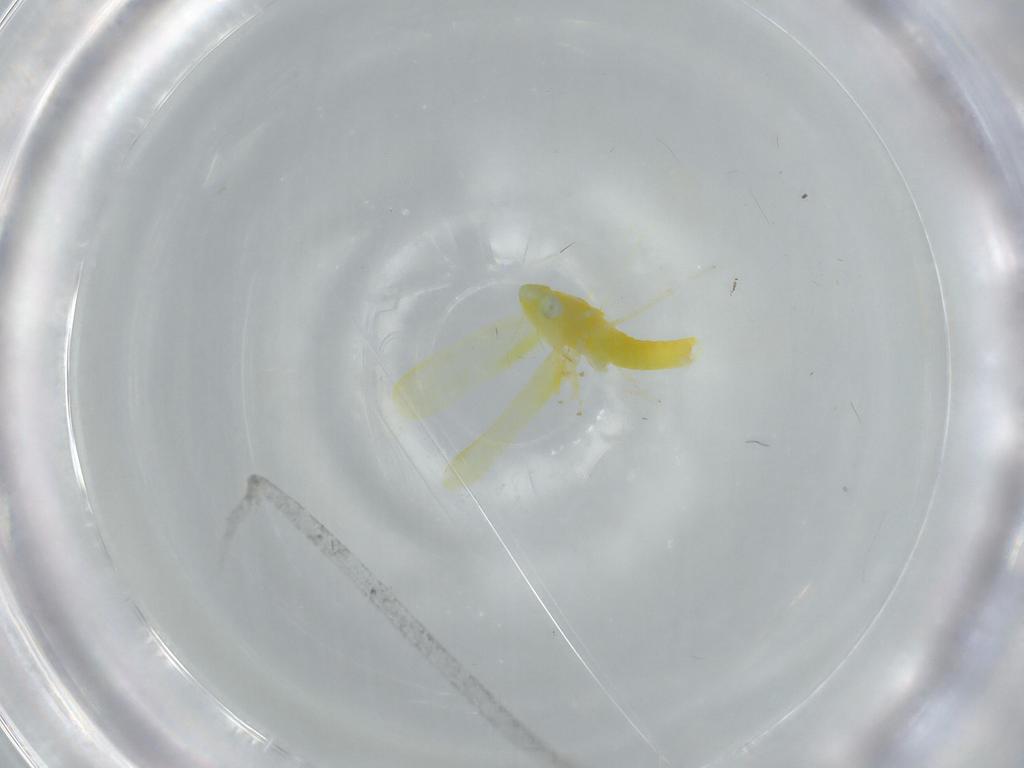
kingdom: Animalia
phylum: Arthropoda
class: Insecta
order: Hemiptera
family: Cicadellidae
